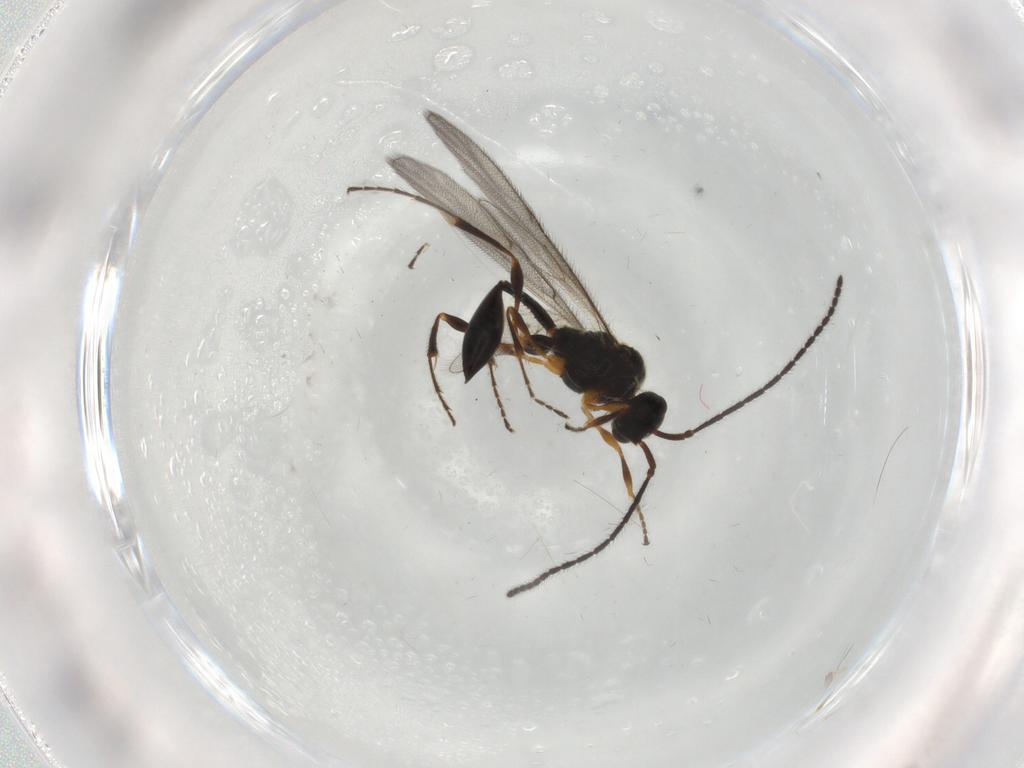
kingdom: Animalia
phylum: Arthropoda
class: Insecta
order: Hymenoptera
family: Diapriidae
